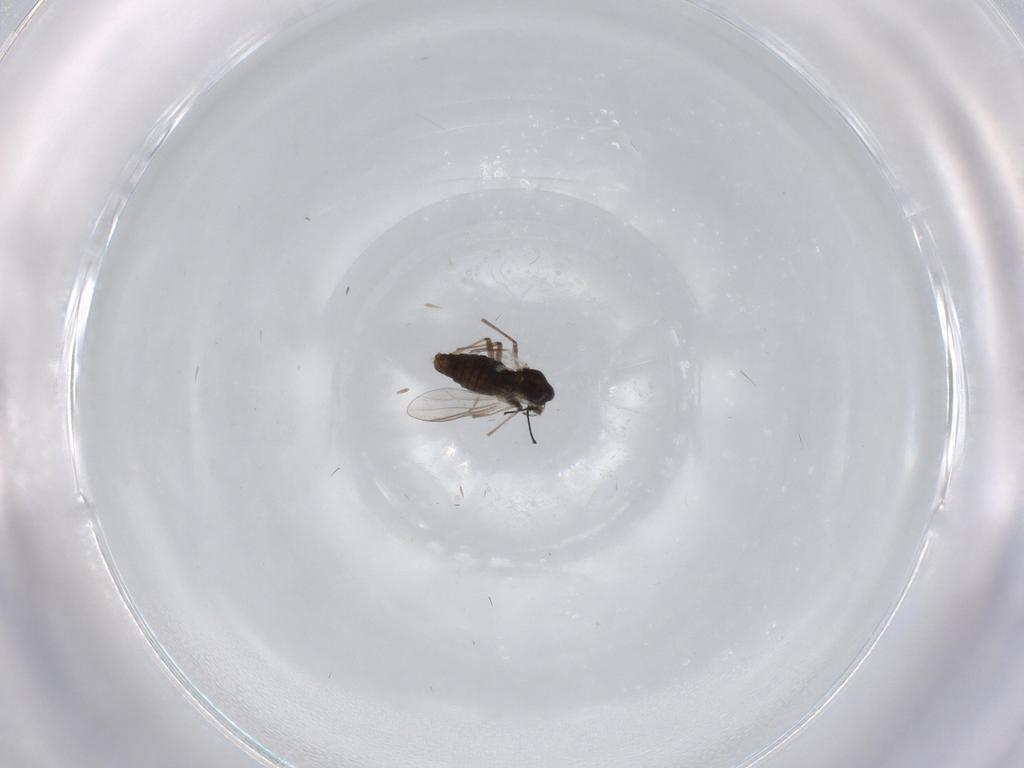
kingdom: Animalia
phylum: Arthropoda
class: Insecta
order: Diptera
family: Chironomidae
